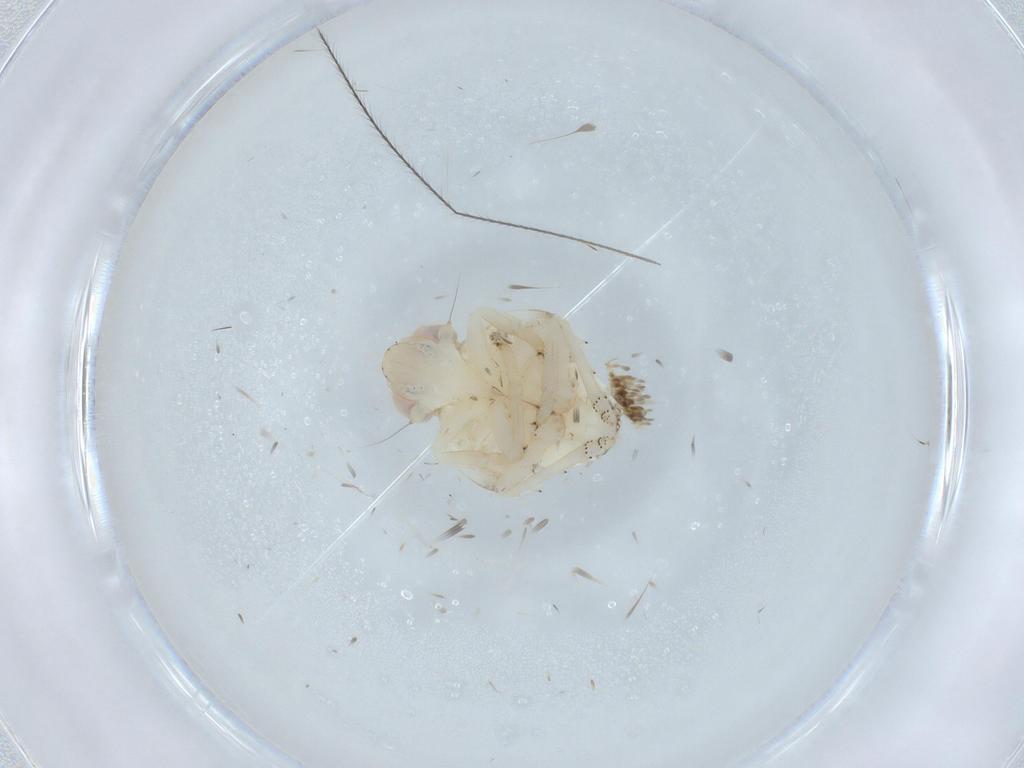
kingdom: Animalia
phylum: Arthropoda
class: Insecta
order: Hemiptera
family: Nogodinidae
